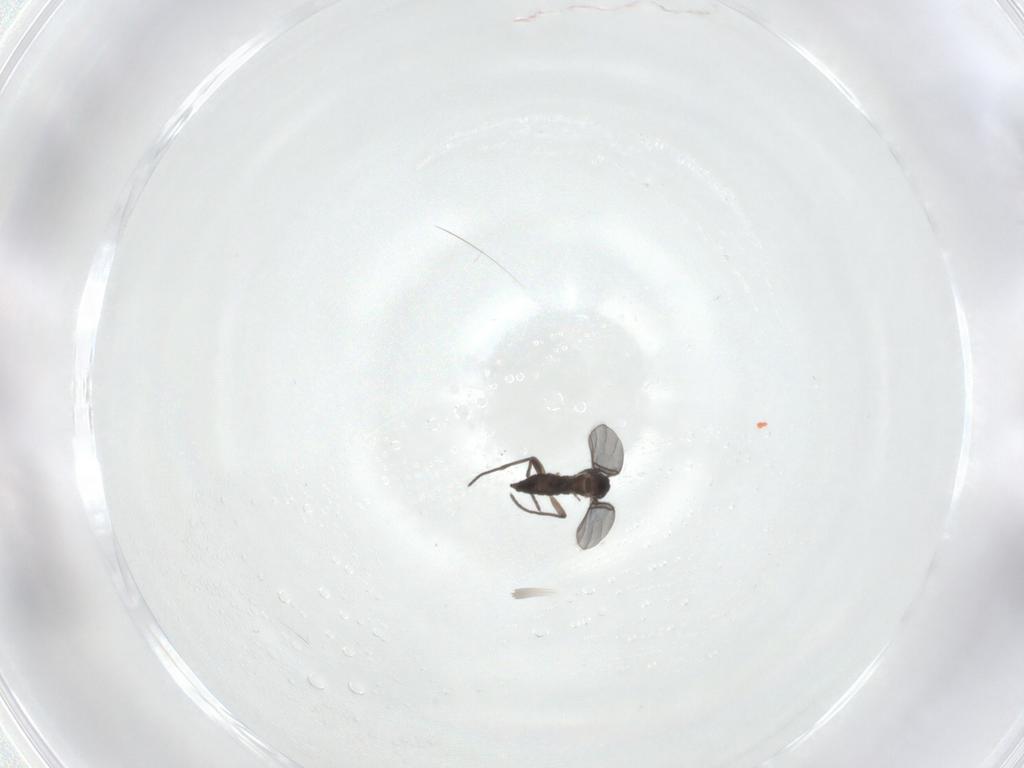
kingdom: Animalia
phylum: Arthropoda
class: Insecta
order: Diptera
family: Sciaridae
